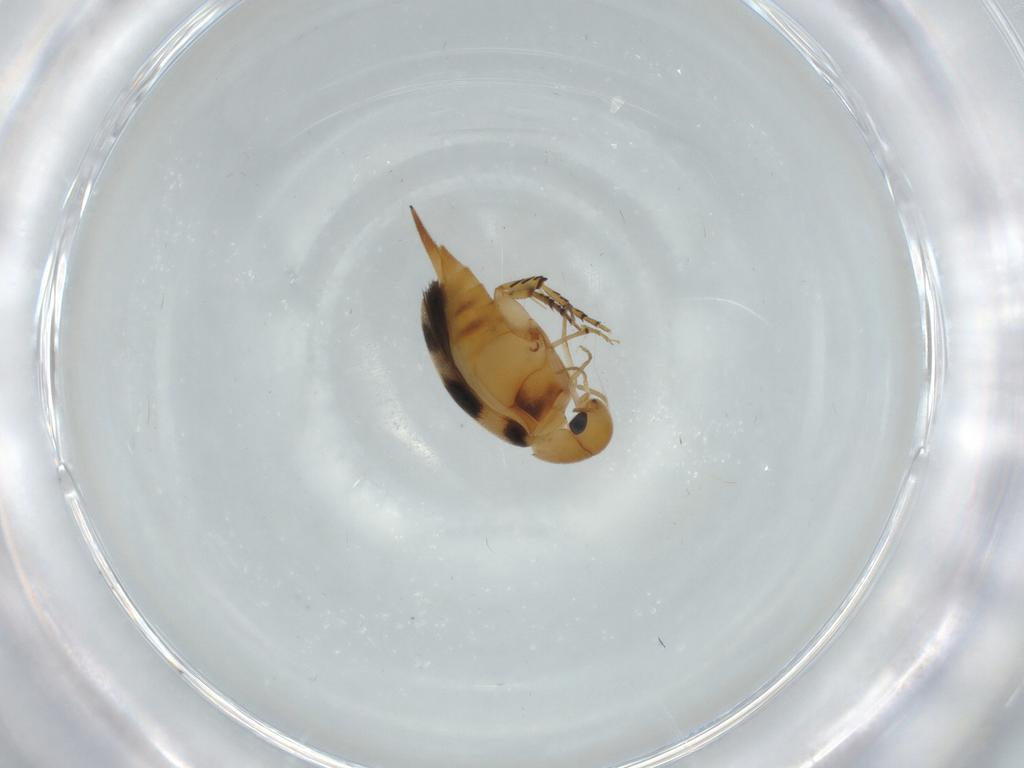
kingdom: Animalia
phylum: Arthropoda
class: Insecta
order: Coleoptera
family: Mordellidae
